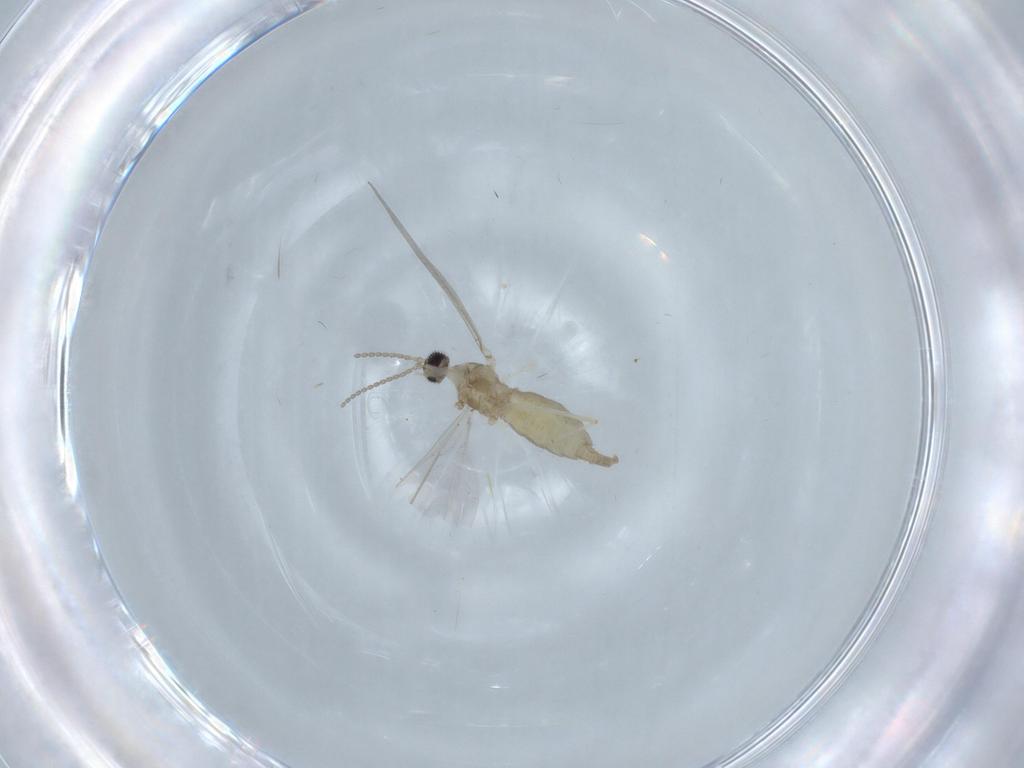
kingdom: Animalia
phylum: Arthropoda
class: Insecta
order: Diptera
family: Cecidomyiidae
